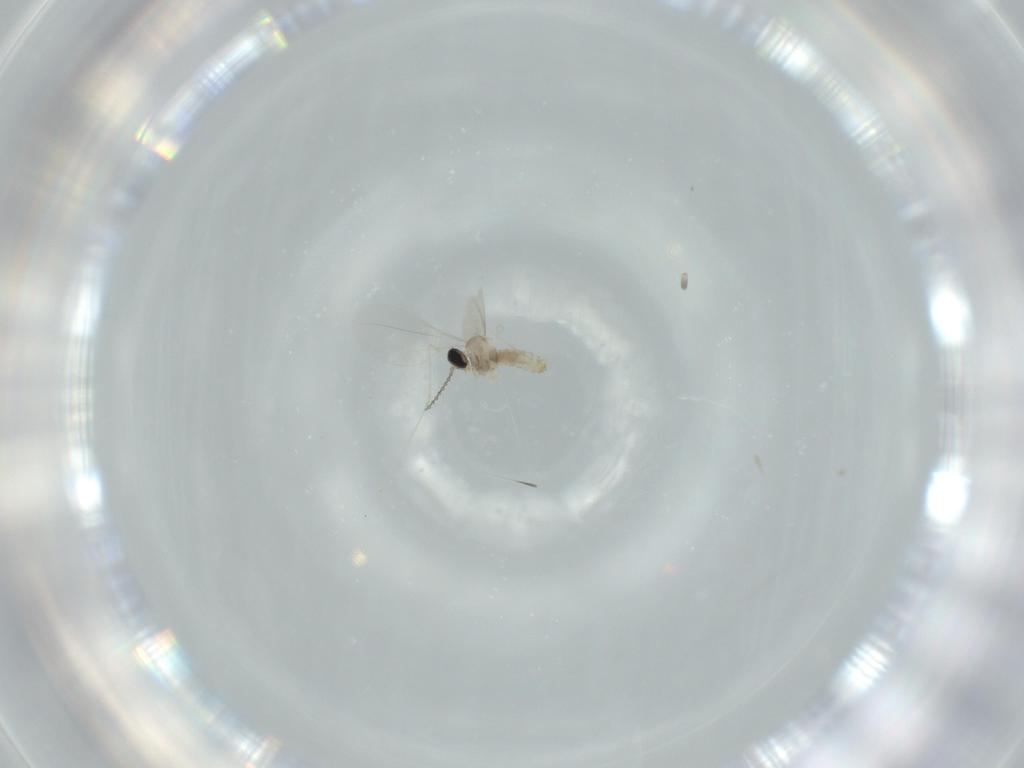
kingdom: Animalia
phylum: Arthropoda
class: Insecta
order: Diptera
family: Cecidomyiidae
